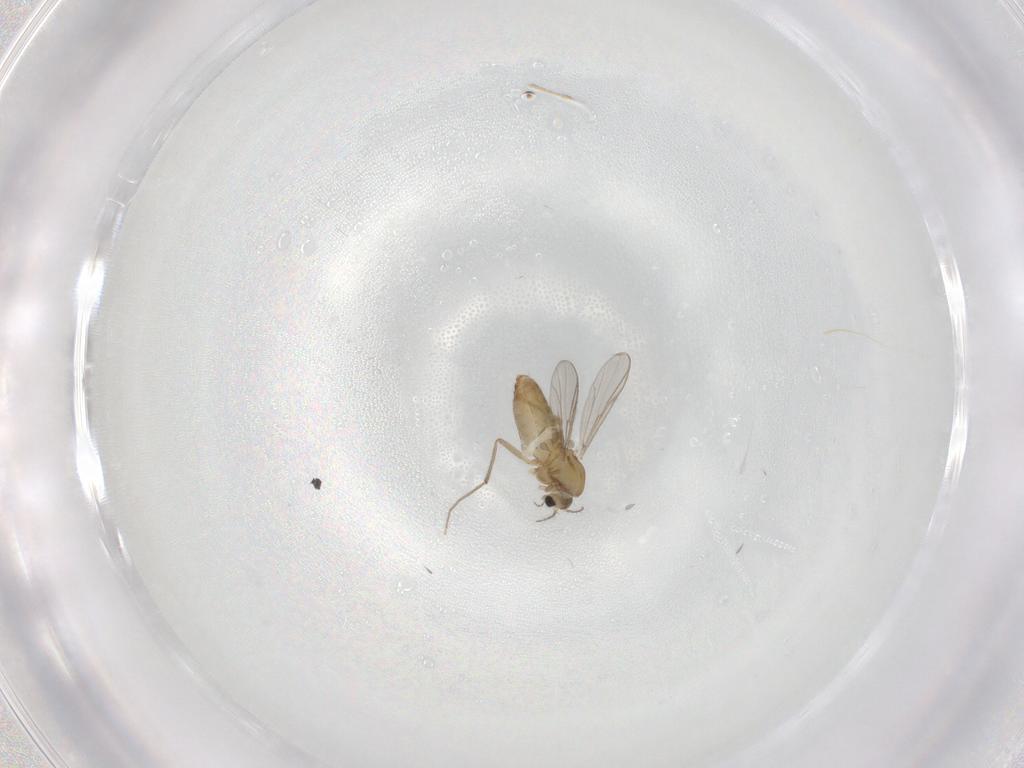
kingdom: Animalia
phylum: Arthropoda
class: Insecta
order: Diptera
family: Chironomidae
